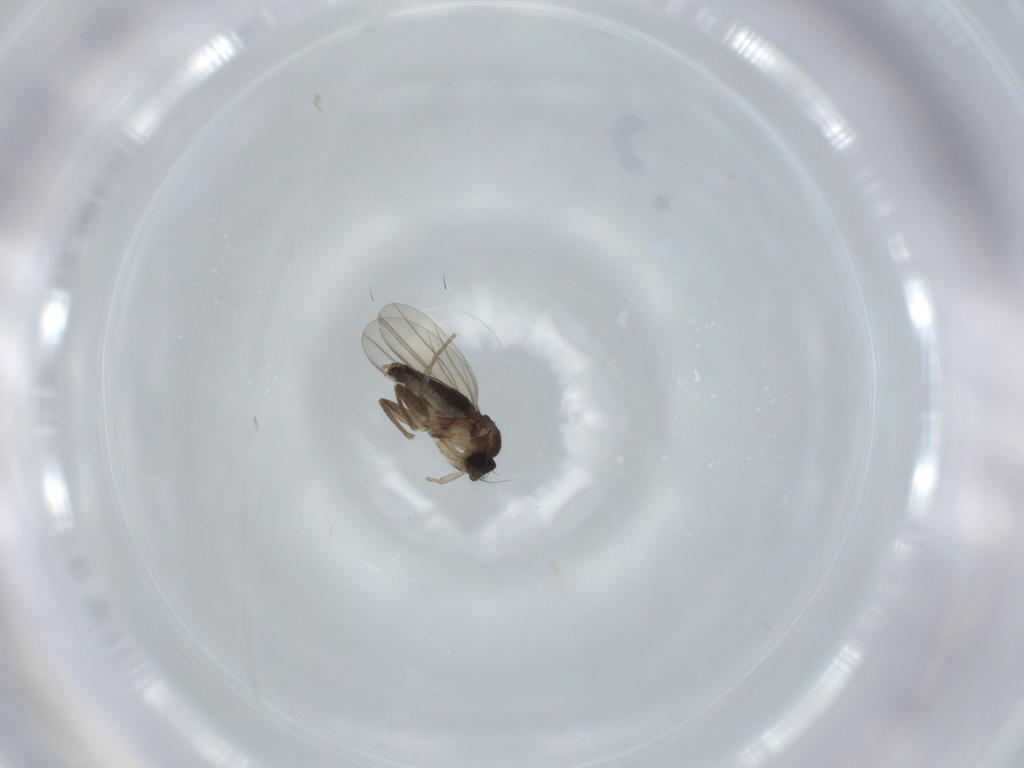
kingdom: Animalia
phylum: Arthropoda
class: Insecta
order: Diptera
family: Phoridae
